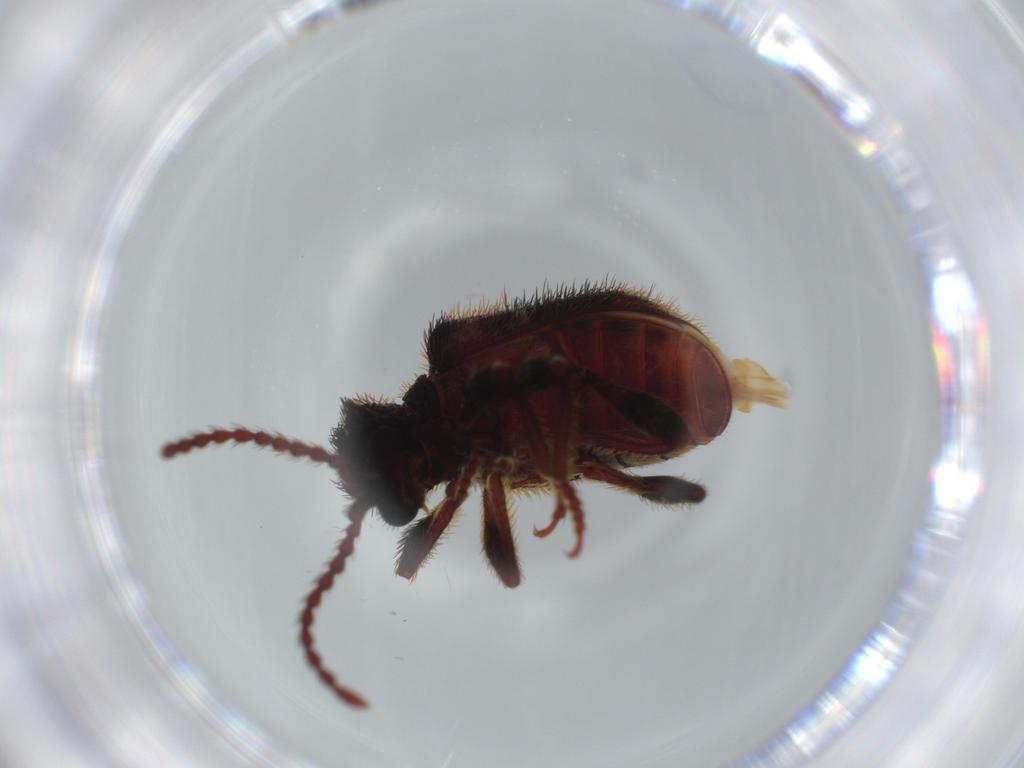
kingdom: Animalia
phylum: Arthropoda
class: Insecta
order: Coleoptera
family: Ptinidae
